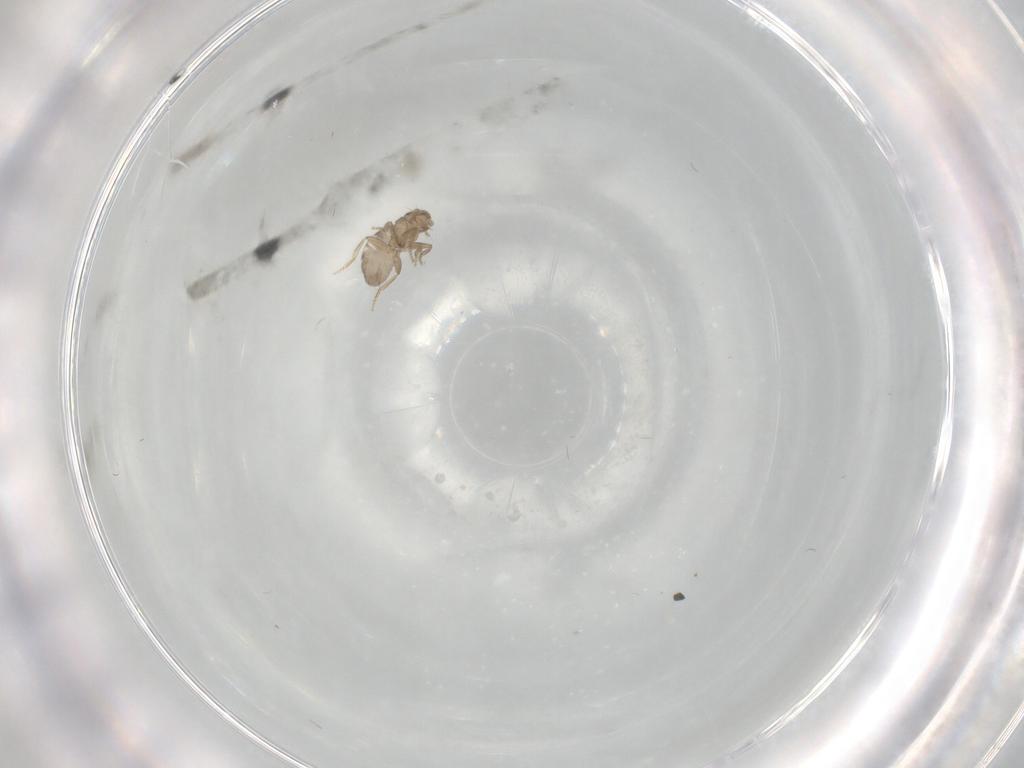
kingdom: Animalia
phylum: Arthropoda
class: Insecta
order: Diptera
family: Cecidomyiidae
